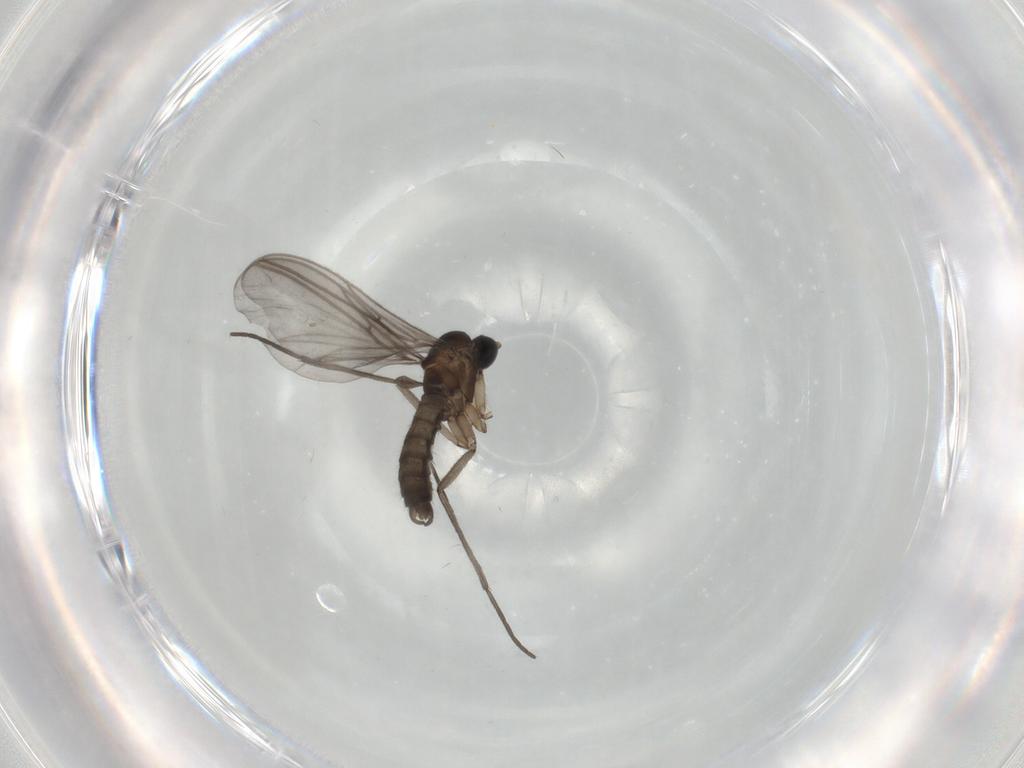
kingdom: Animalia
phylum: Arthropoda
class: Insecta
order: Diptera
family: Sciaridae
